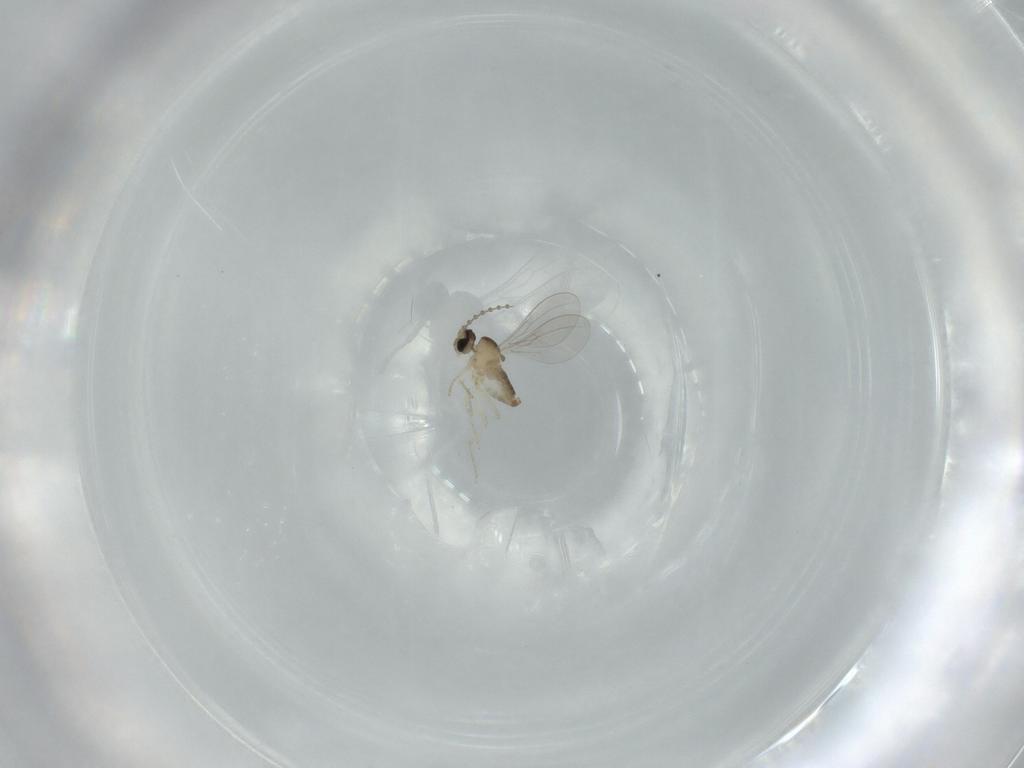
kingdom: Animalia
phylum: Arthropoda
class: Insecta
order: Diptera
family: Cecidomyiidae
